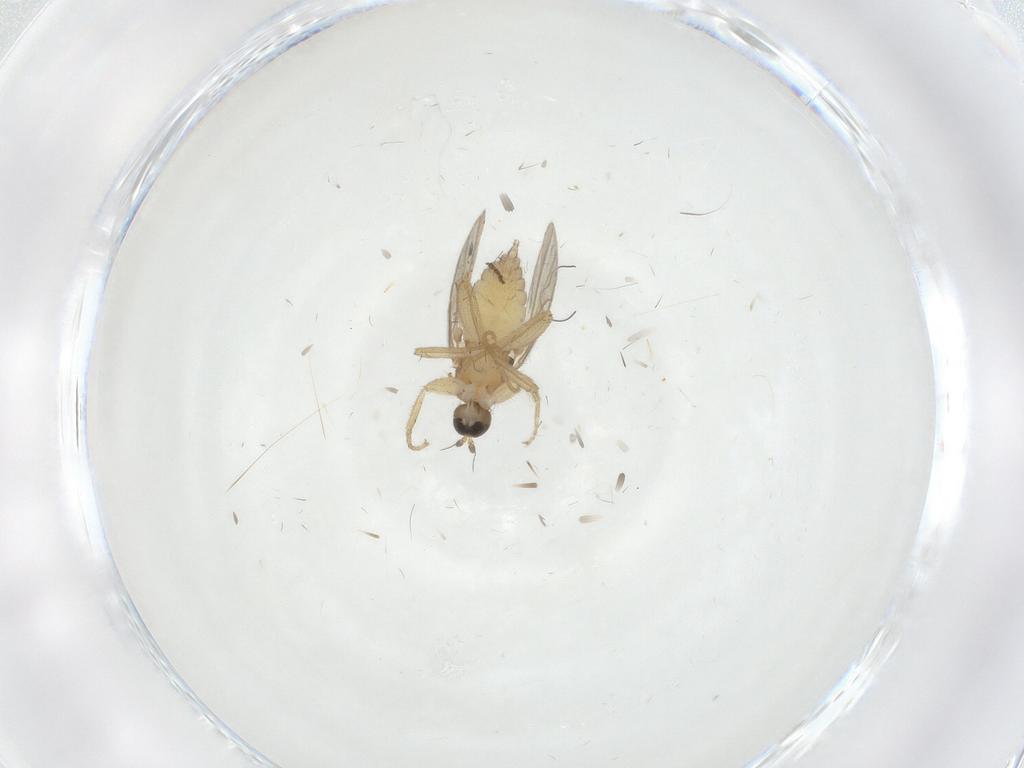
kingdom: Animalia
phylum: Arthropoda
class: Insecta
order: Diptera
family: Hybotidae
